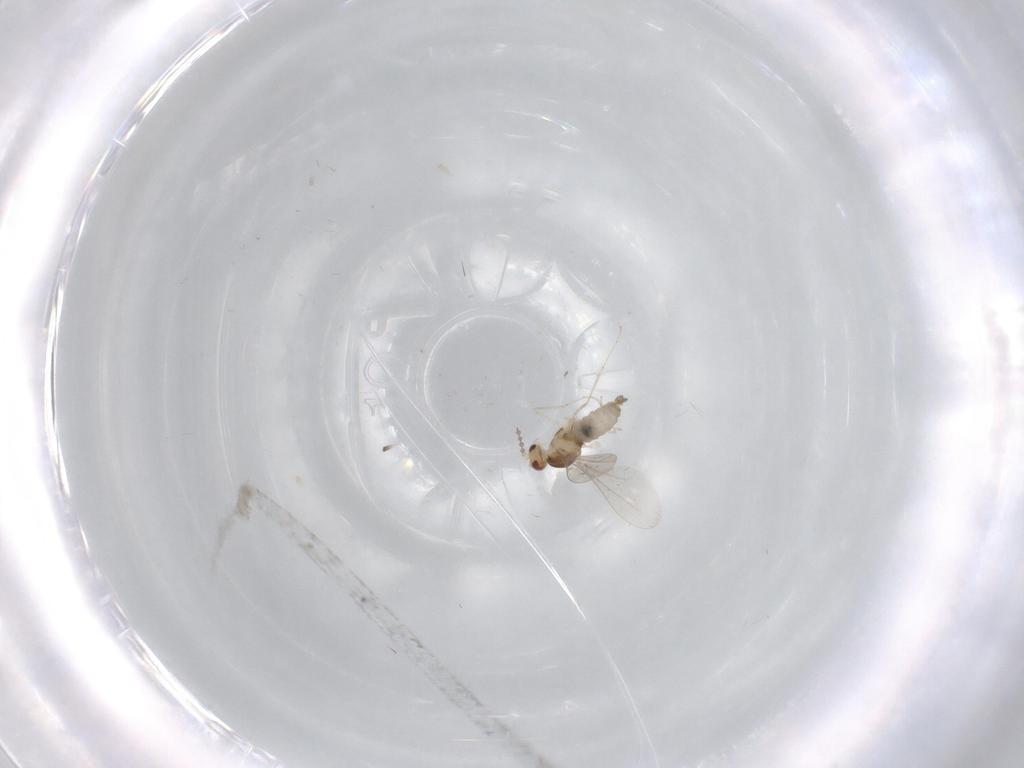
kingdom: Animalia
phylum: Arthropoda
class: Insecta
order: Diptera
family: Cecidomyiidae
